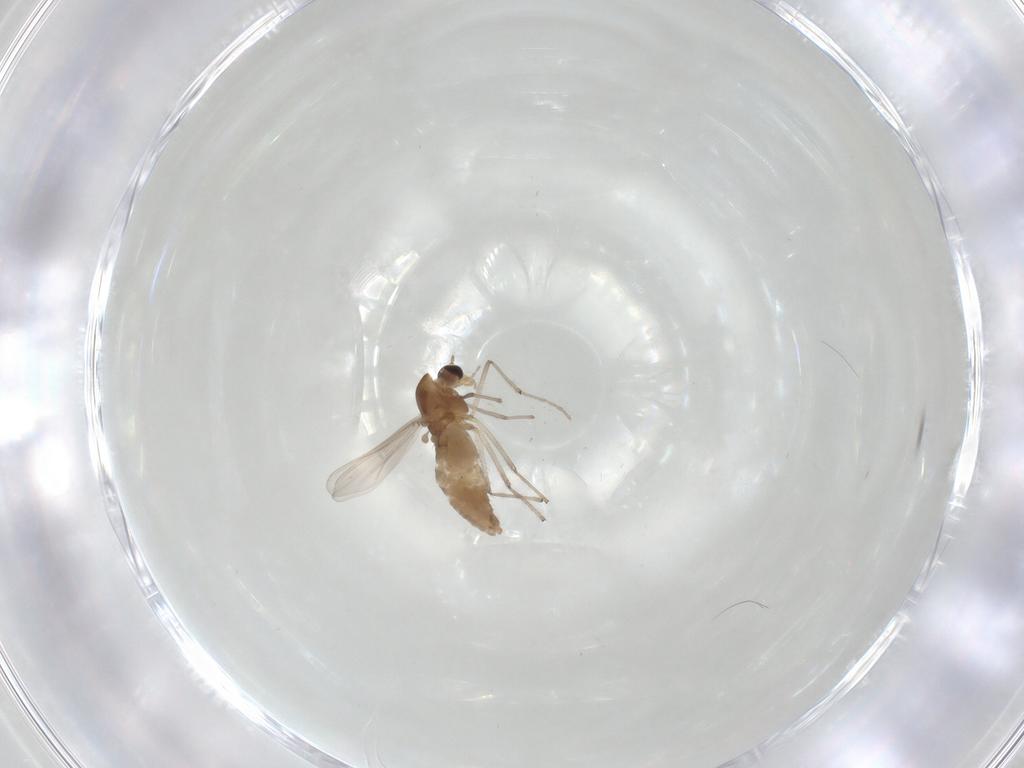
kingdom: Animalia
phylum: Arthropoda
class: Insecta
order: Diptera
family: Chironomidae
